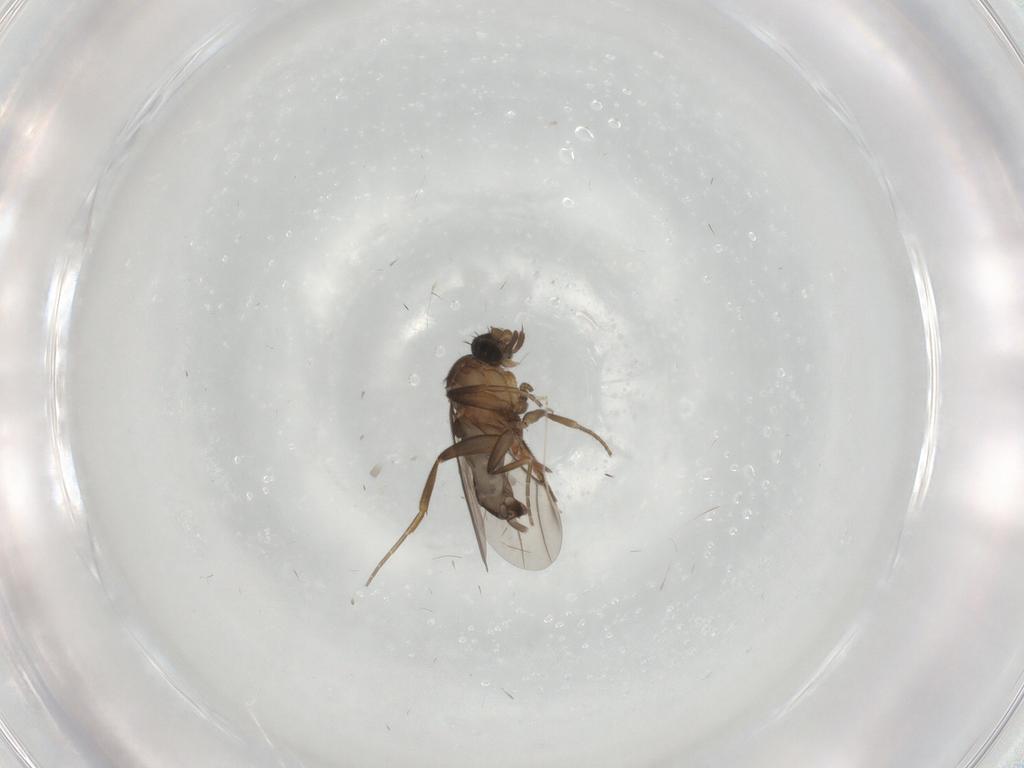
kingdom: Animalia
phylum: Arthropoda
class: Insecta
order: Diptera
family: Phoridae
